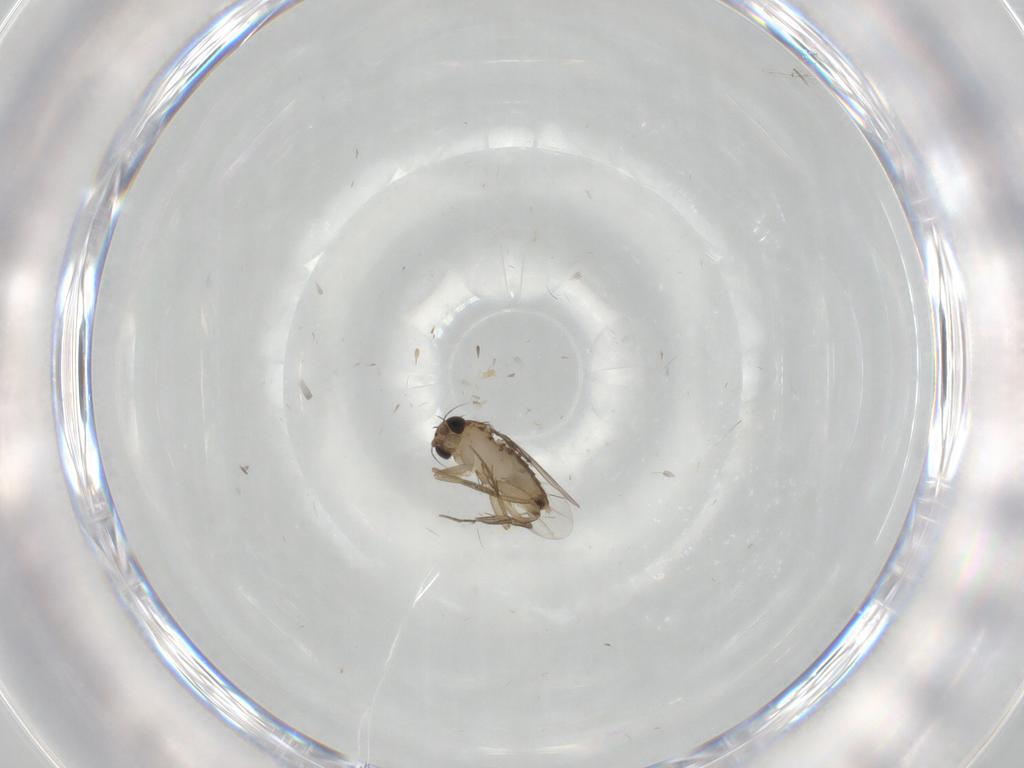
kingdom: Animalia
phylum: Arthropoda
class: Insecta
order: Diptera
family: Phoridae
